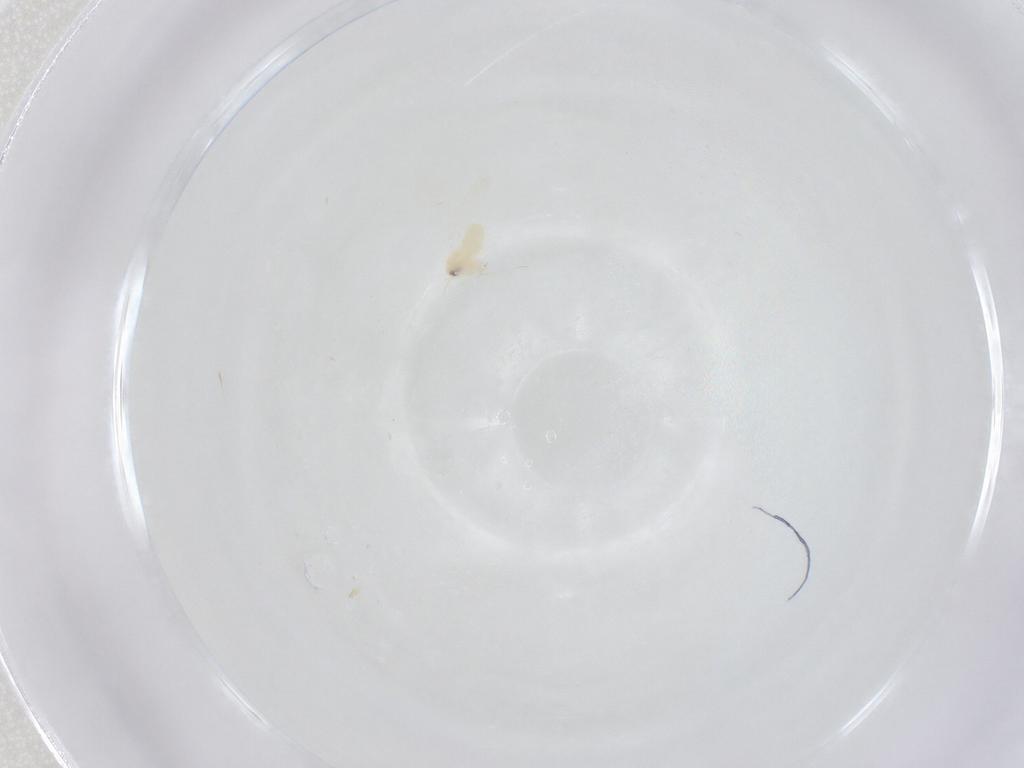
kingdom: Animalia
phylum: Arthropoda
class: Insecta
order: Hemiptera
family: Aleyrodidae
